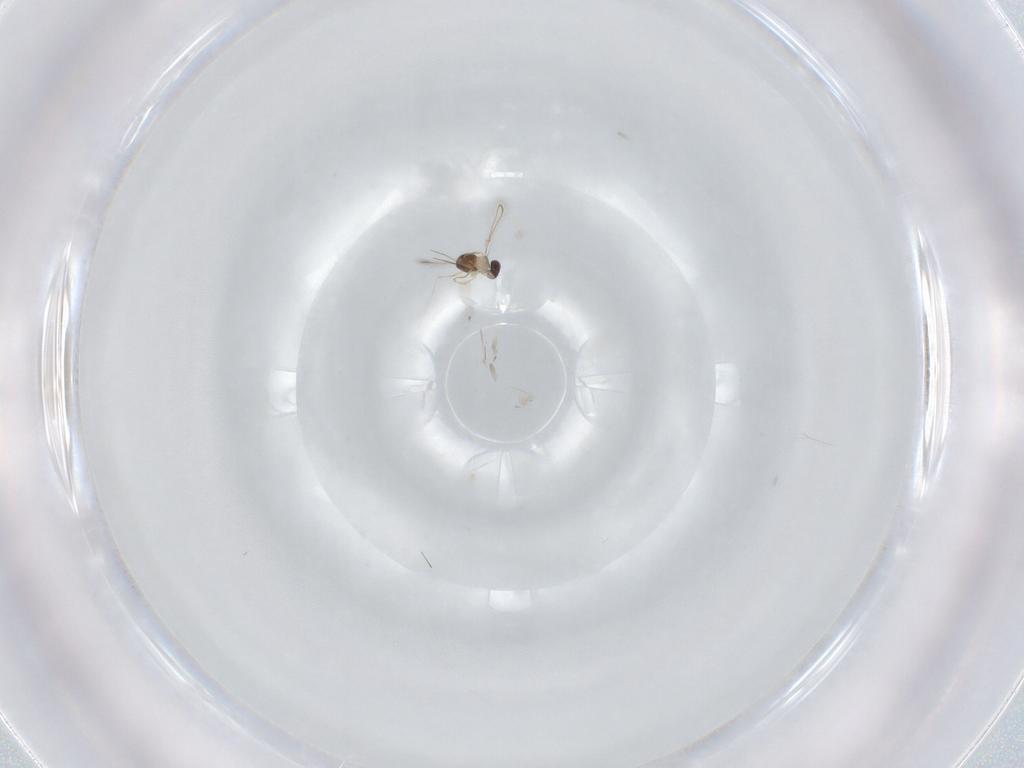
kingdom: Animalia
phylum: Arthropoda
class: Insecta
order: Hymenoptera
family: Mymaridae
